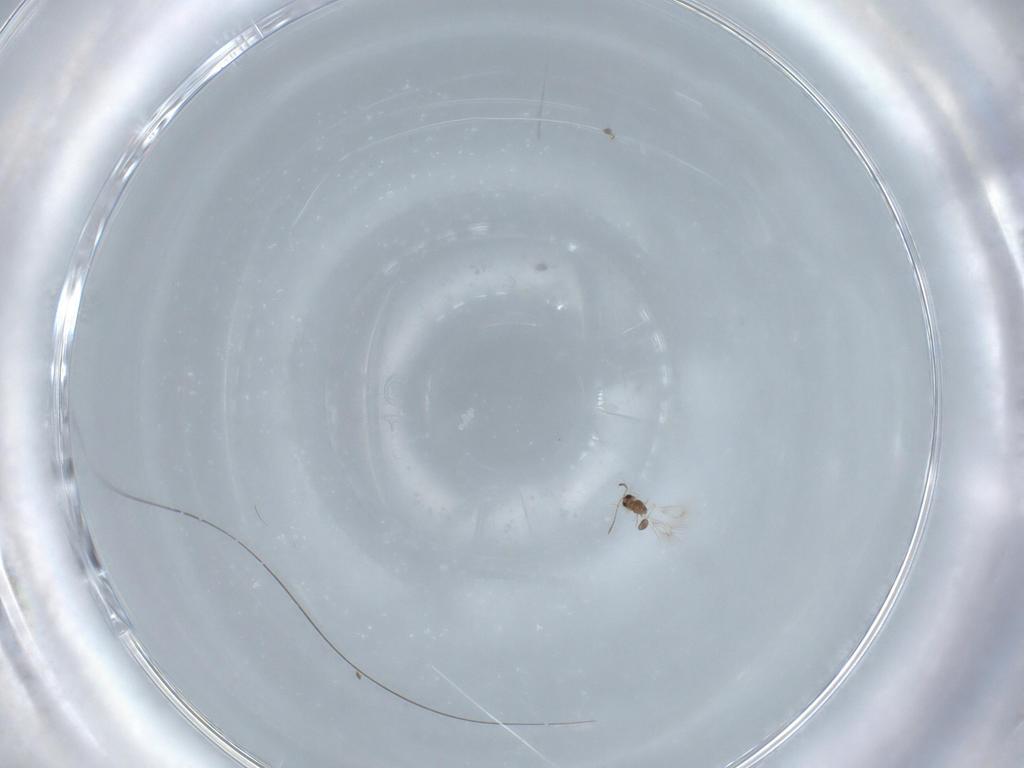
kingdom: Animalia
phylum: Arthropoda
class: Insecta
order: Hymenoptera
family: Mymarommatidae
